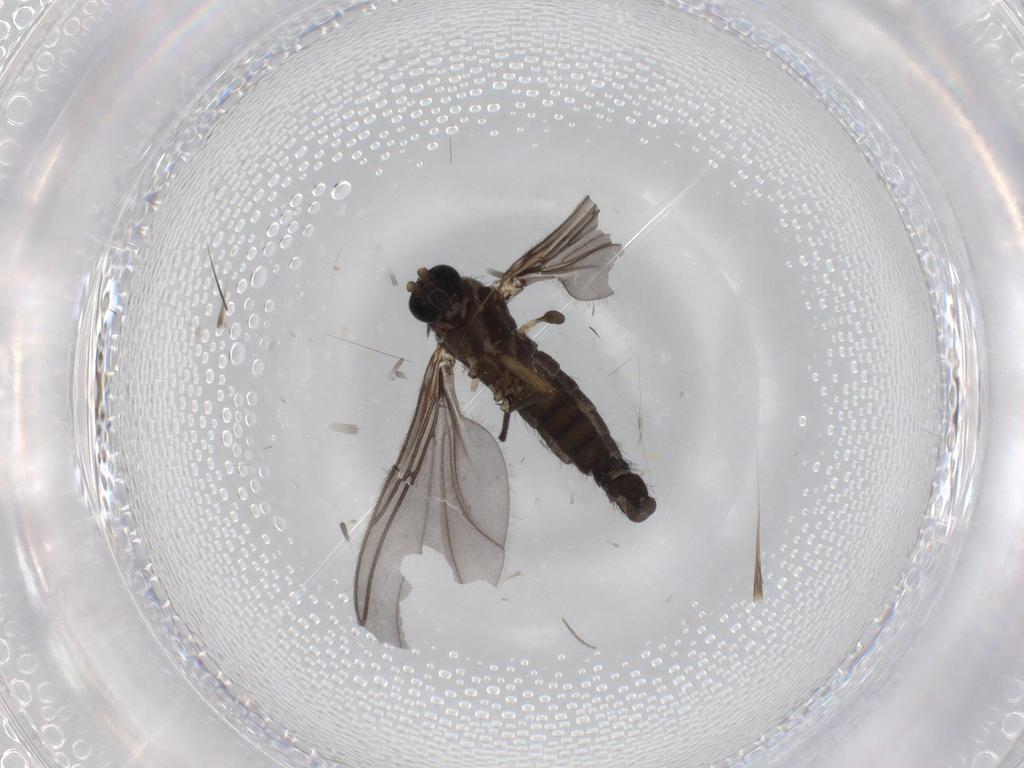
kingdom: Animalia
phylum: Arthropoda
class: Insecta
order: Diptera
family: Sciaridae
